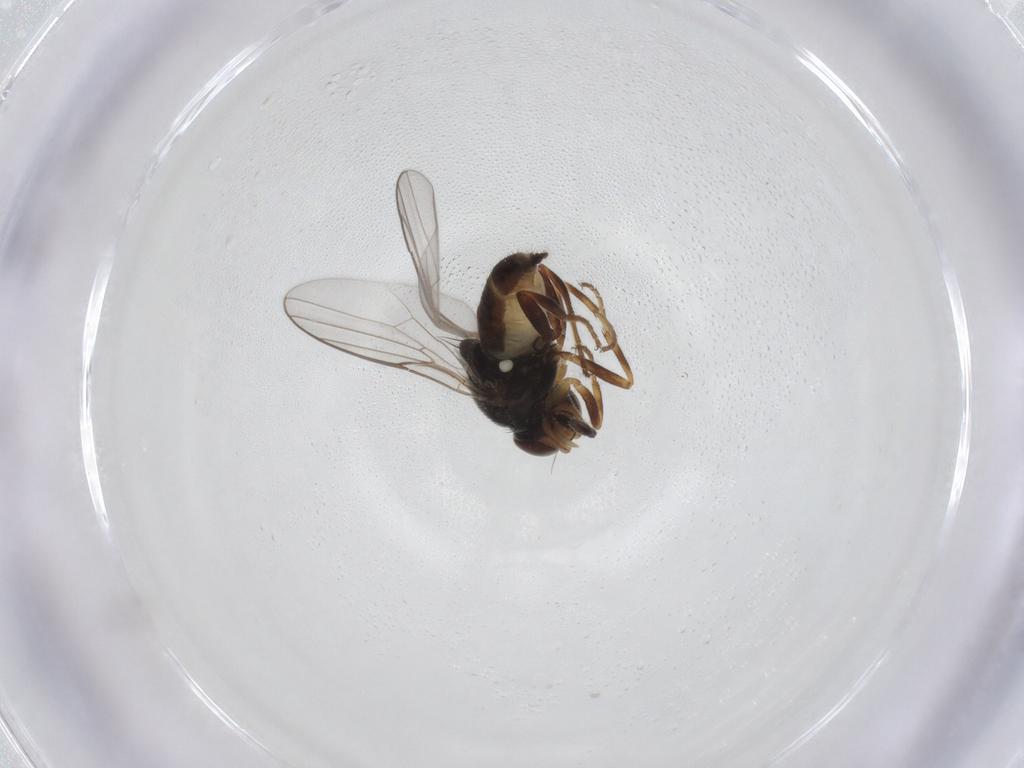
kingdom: Animalia
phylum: Arthropoda
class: Insecta
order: Diptera
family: Chloropidae
